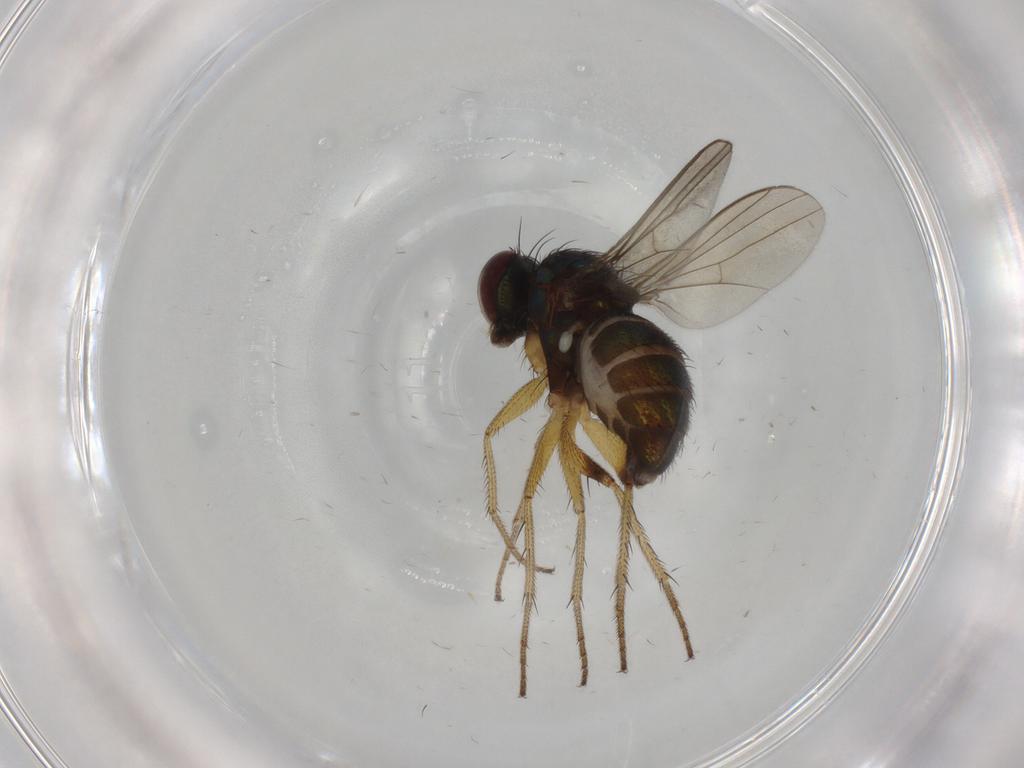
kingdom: Animalia
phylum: Arthropoda
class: Insecta
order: Diptera
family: Dolichopodidae
